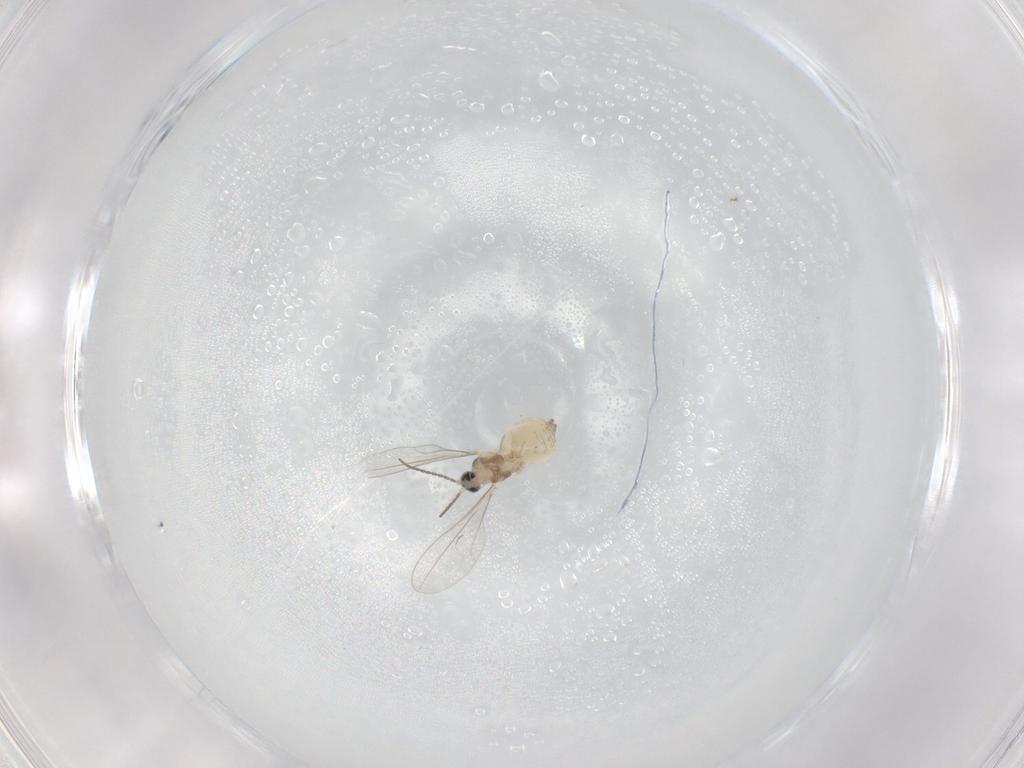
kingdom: Animalia
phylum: Arthropoda
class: Insecta
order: Diptera
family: Cecidomyiidae
